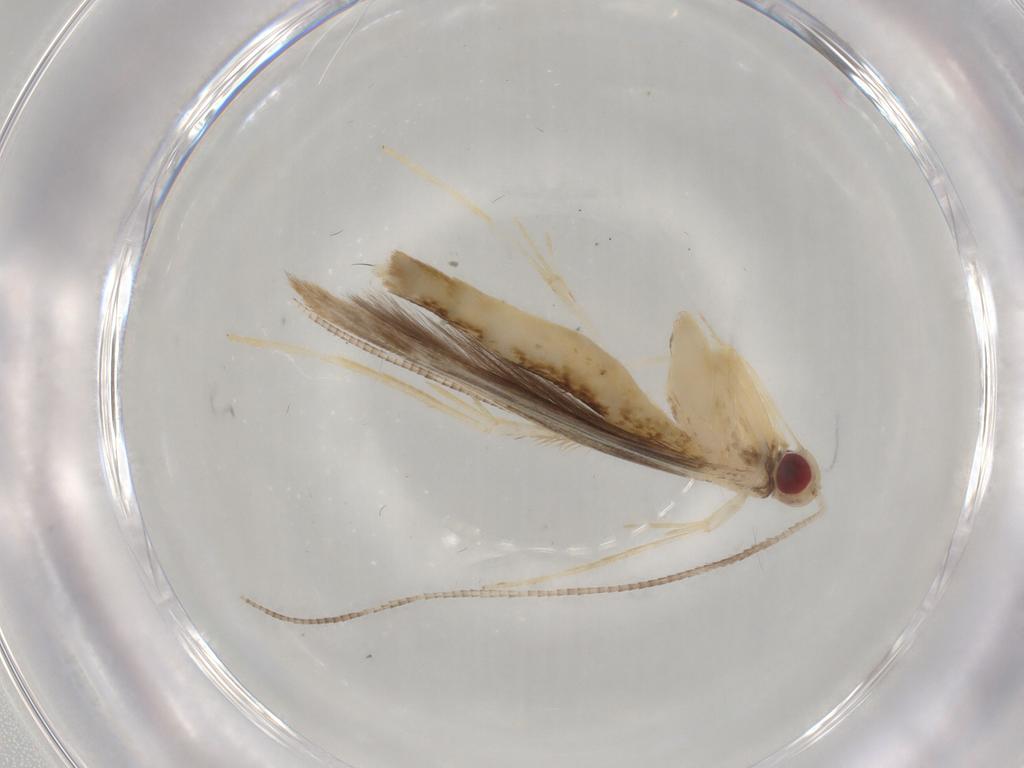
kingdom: Animalia
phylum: Arthropoda
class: Insecta
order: Lepidoptera
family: Gracillariidae
